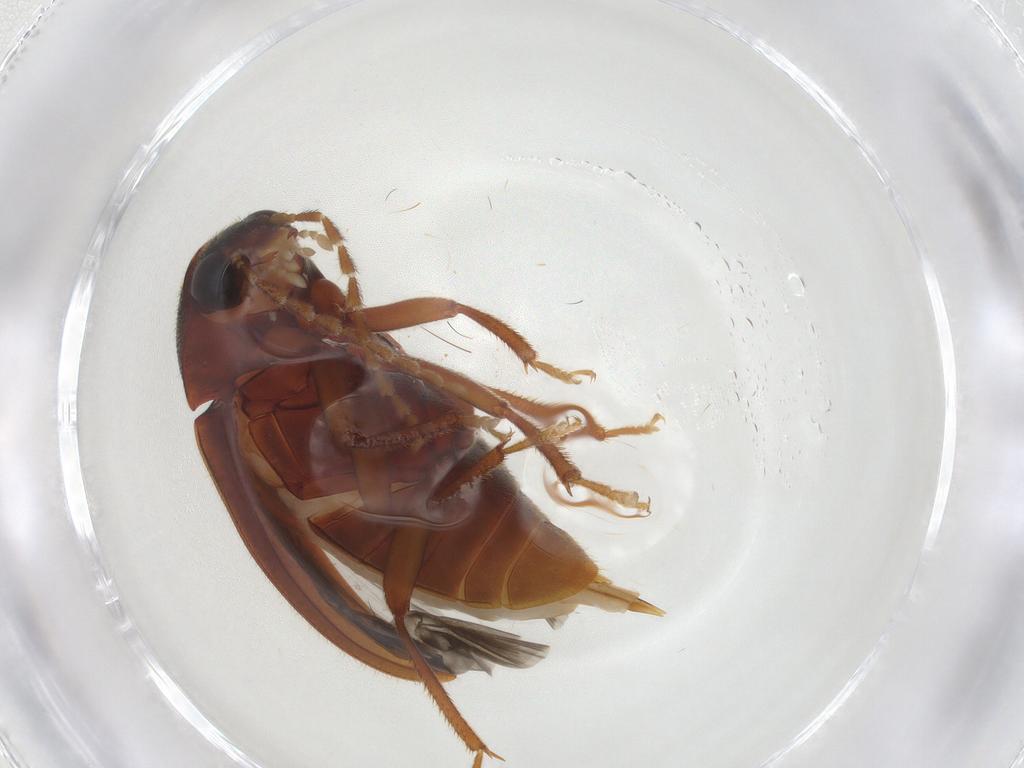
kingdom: Animalia
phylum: Arthropoda
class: Insecta
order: Coleoptera
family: Ptilodactylidae
